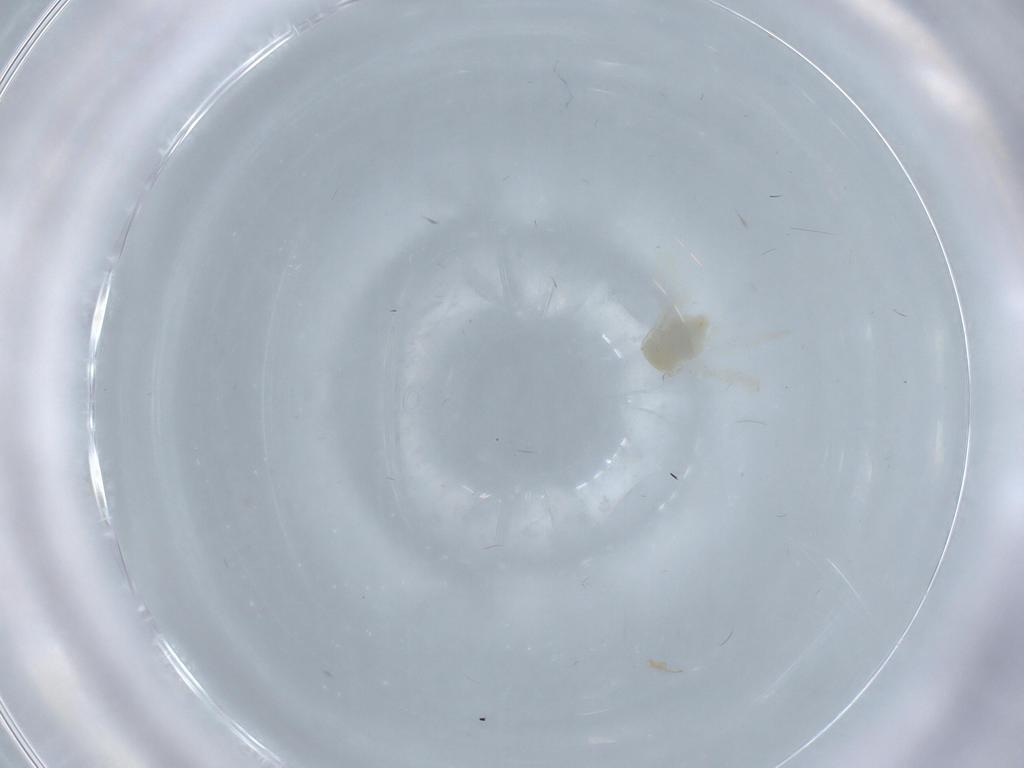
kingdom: Animalia
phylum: Arthropoda
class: Insecta
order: Hemiptera
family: Aleyrodidae
